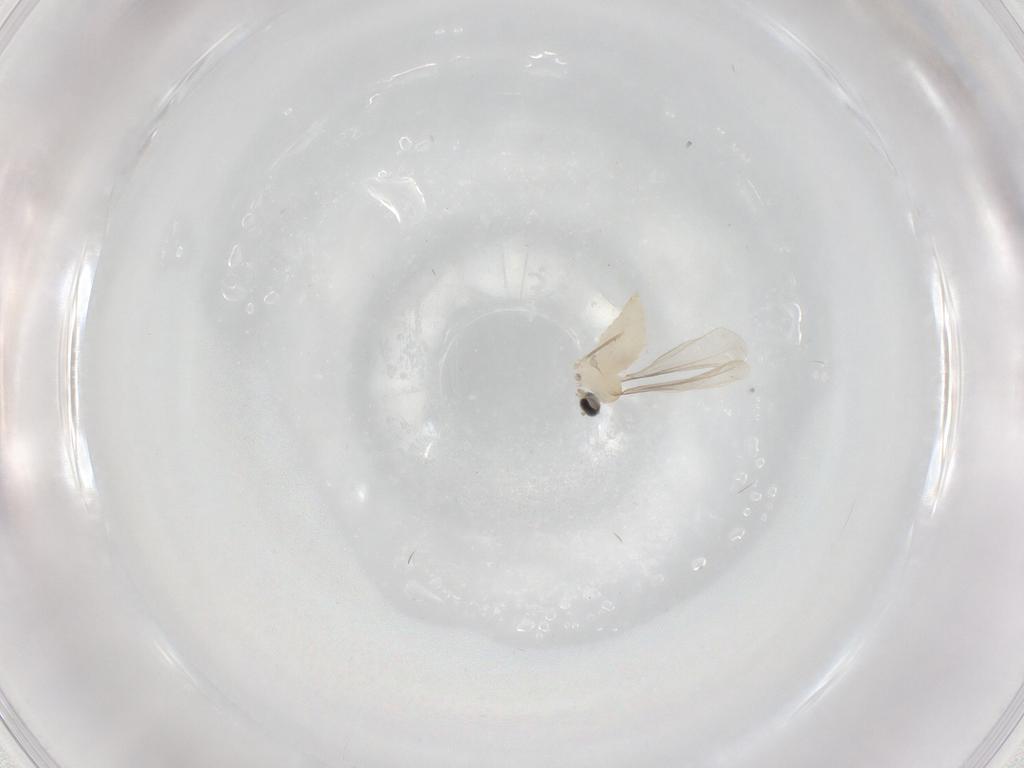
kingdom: Animalia
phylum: Arthropoda
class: Insecta
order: Diptera
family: Cecidomyiidae
